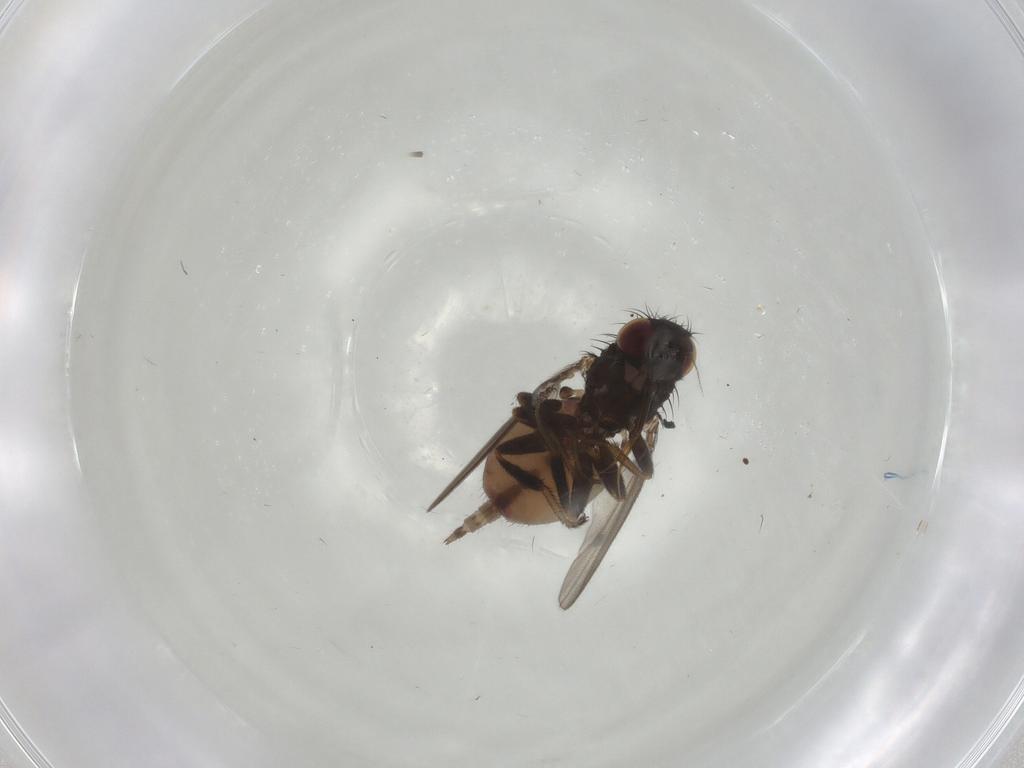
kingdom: Animalia
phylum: Arthropoda
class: Insecta
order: Diptera
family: Milichiidae
